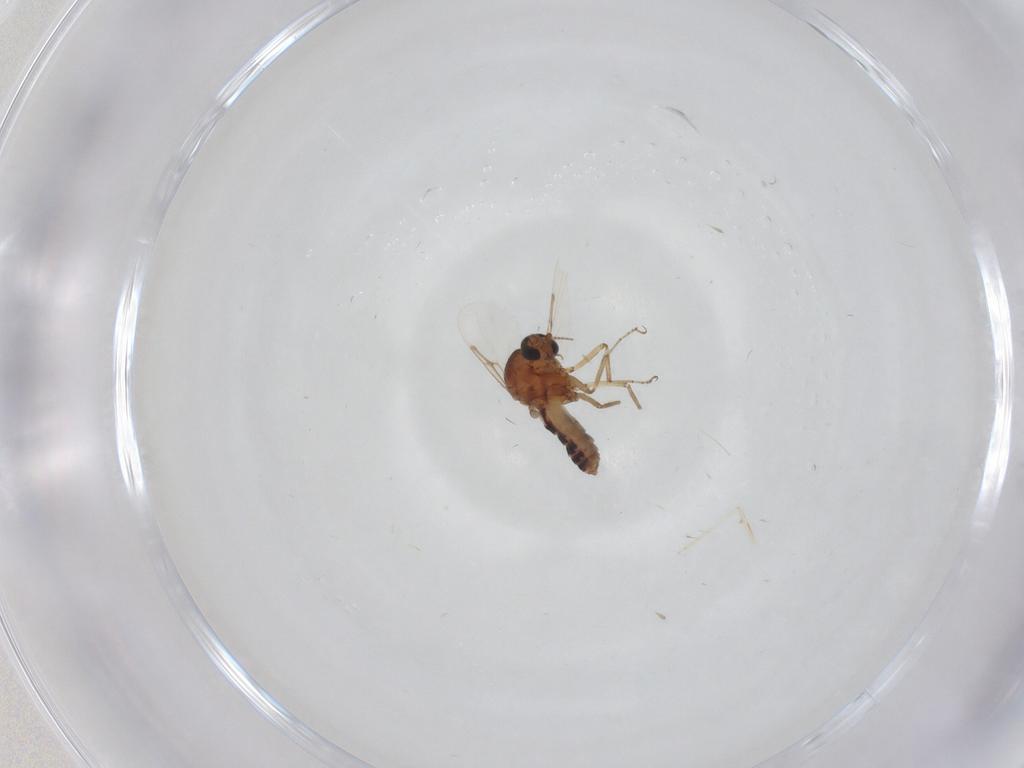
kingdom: Animalia
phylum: Arthropoda
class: Insecta
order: Diptera
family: Ceratopogonidae
